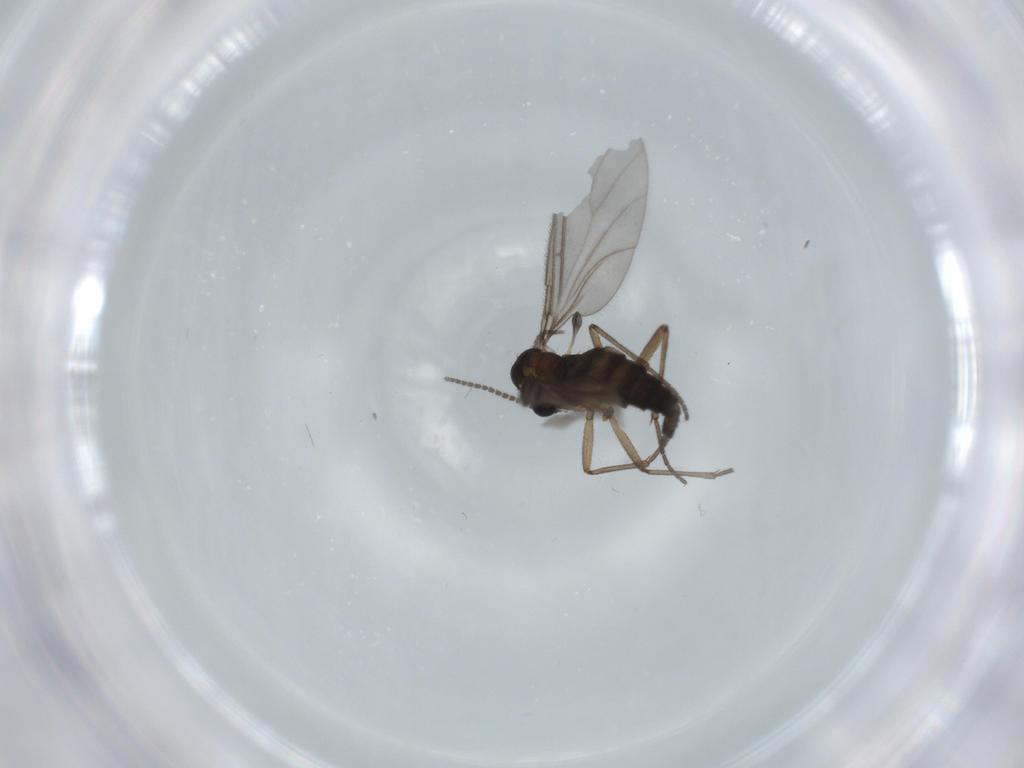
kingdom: Animalia
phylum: Arthropoda
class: Insecta
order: Diptera
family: Sciaridae
